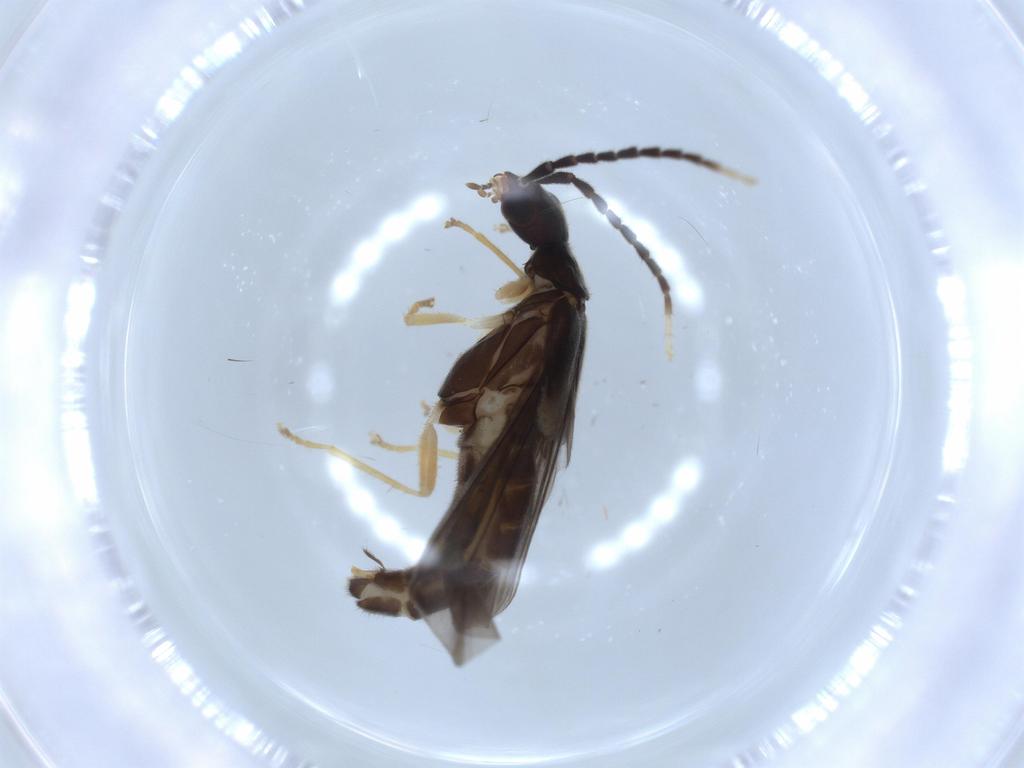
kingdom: Animalia
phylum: Arthropoda
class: Insecta
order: Coleoptera
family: Cantharidae
